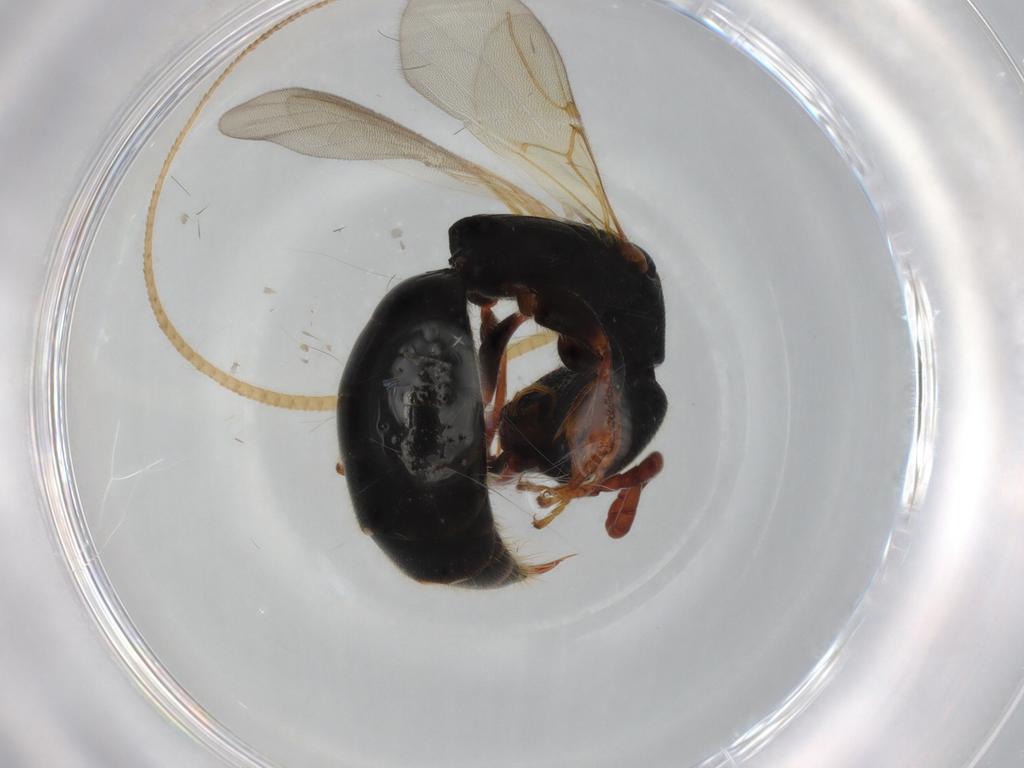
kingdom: Animalia
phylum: Arthropoda
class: Insecta
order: Hymenoptera
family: Bethylidae
